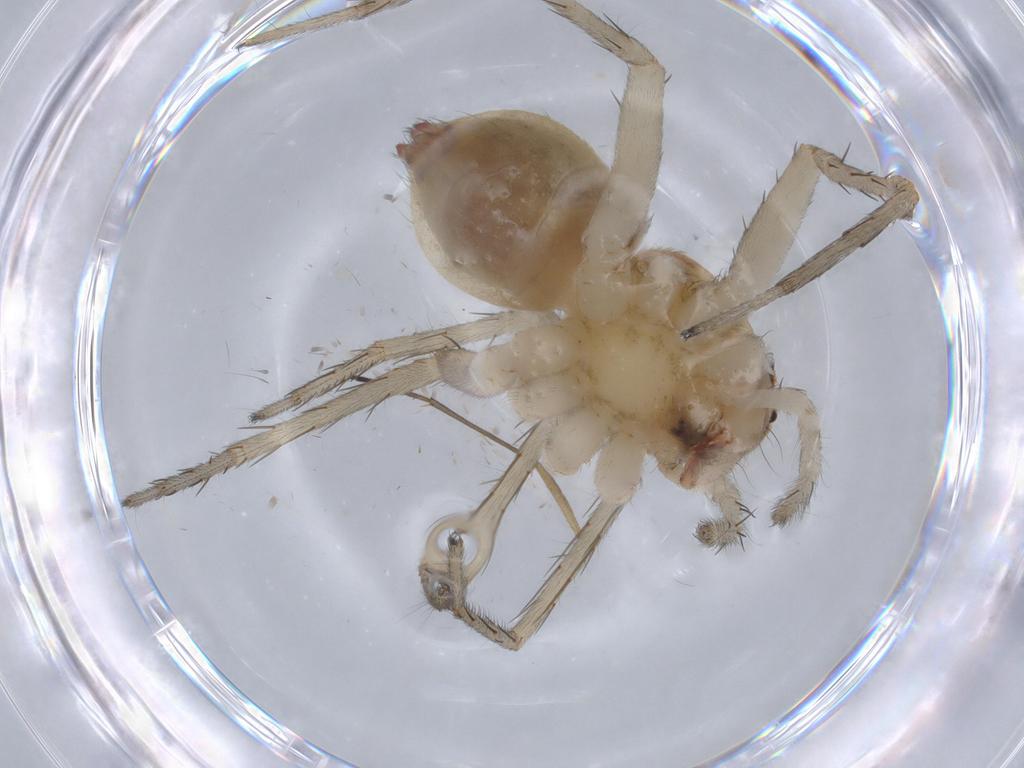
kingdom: Animalia
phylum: Arthropoda
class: Arachnida
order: Araneae
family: Pisauridae
